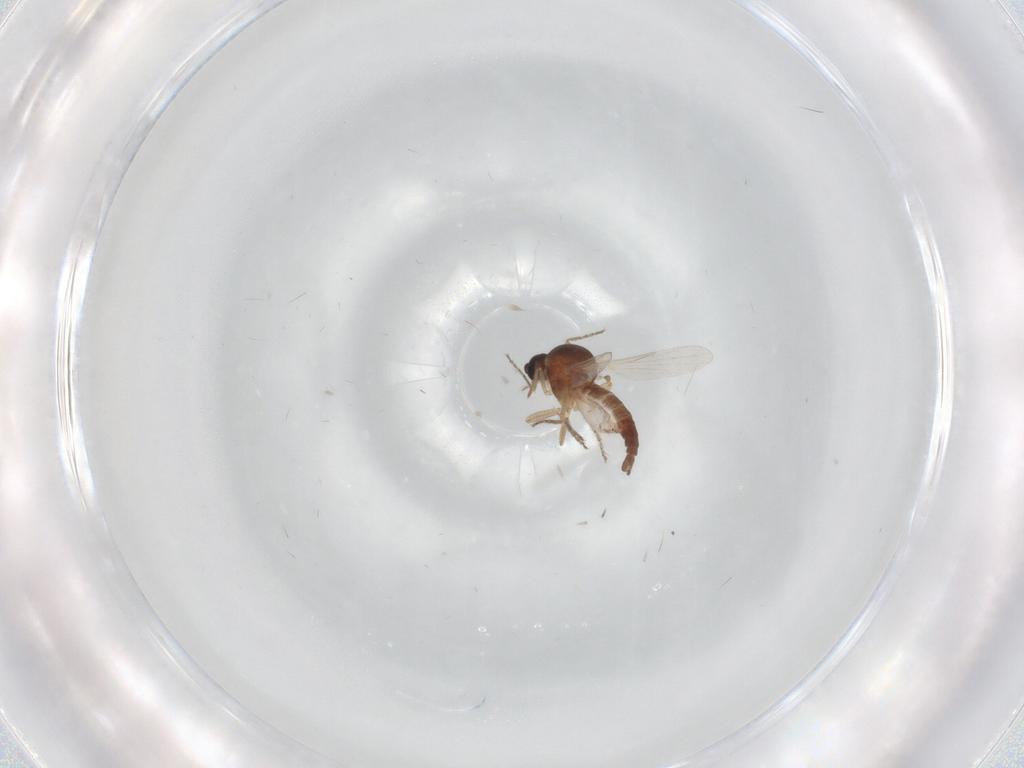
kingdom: Animalia
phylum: Arthropoda
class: Insecta
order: Diptera
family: Ceratopogonidae
